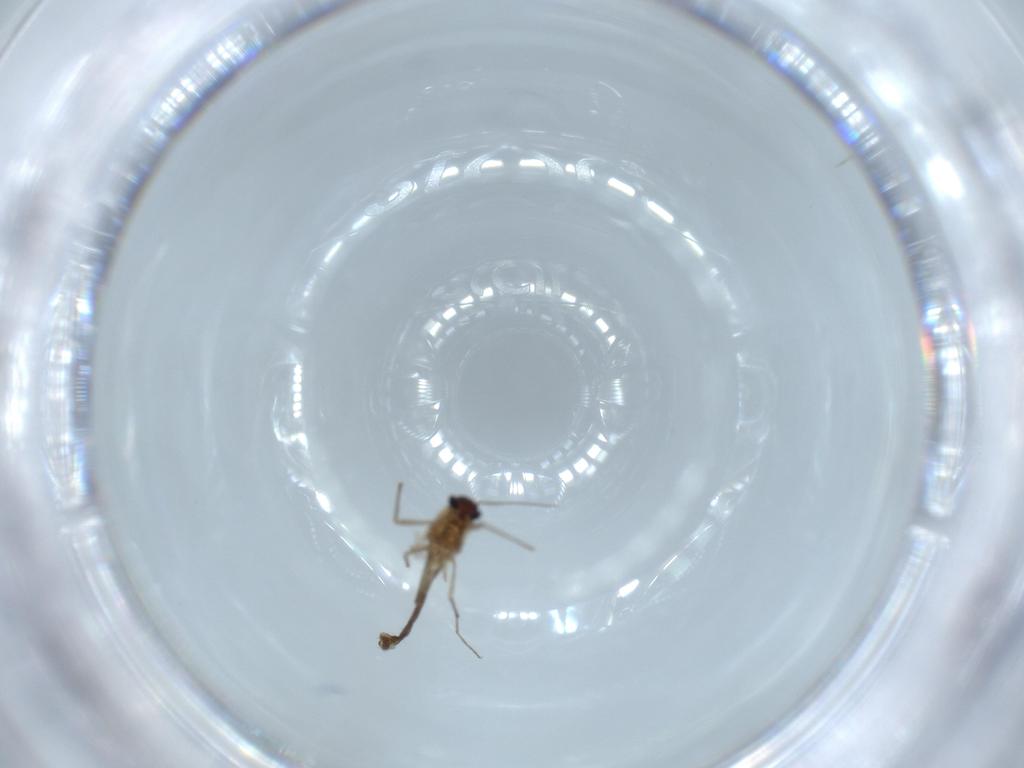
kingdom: Animalia
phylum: Arthropoda
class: Insecta
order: Diptera
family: Chironomidae
